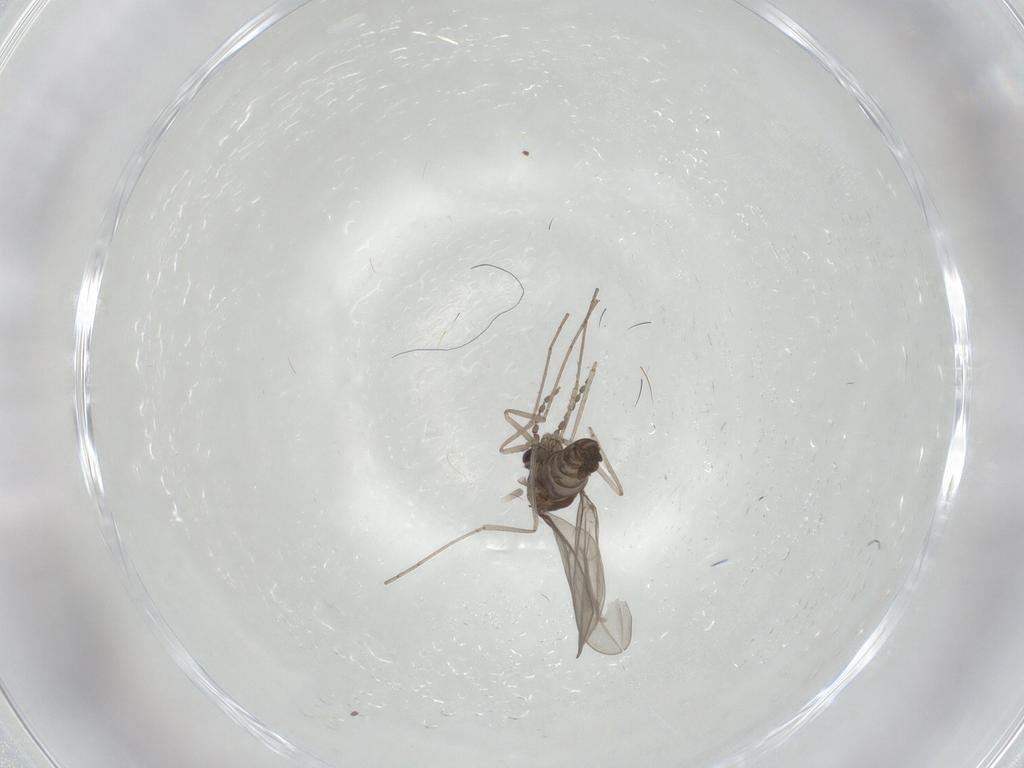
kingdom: Animalia
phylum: Arthropoda
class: Insecta
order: Diptera
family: Cecidomyiidae
